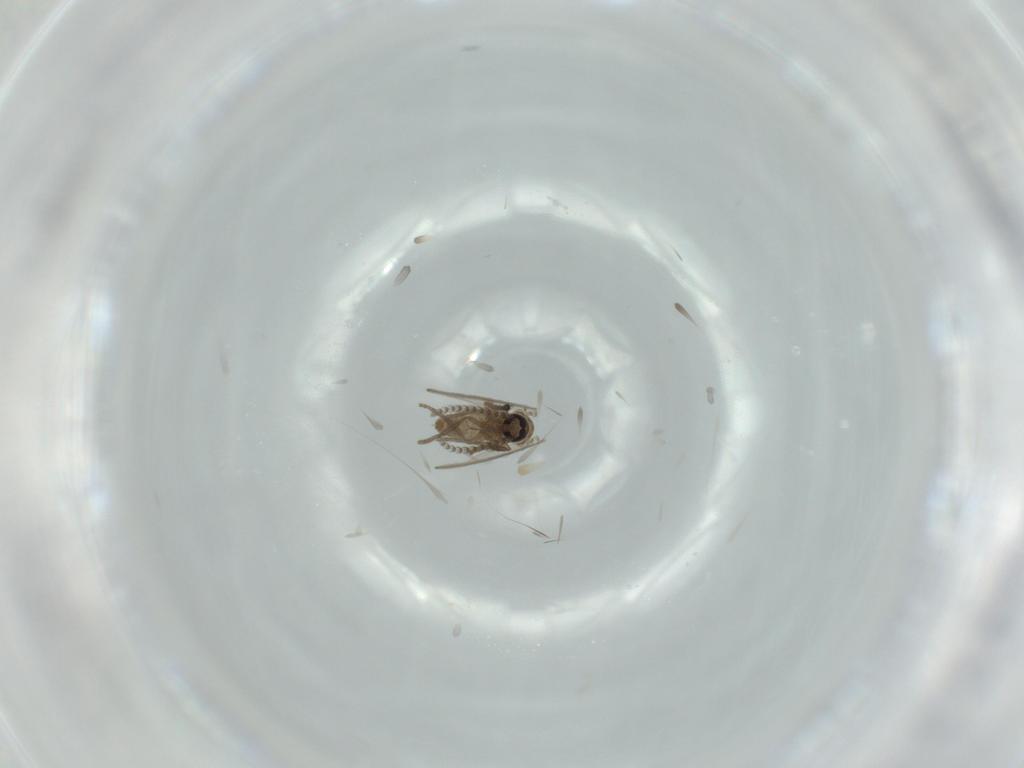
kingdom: Animalia
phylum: Arthropoda
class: Insecta
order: Diptera
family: Psychodidae
